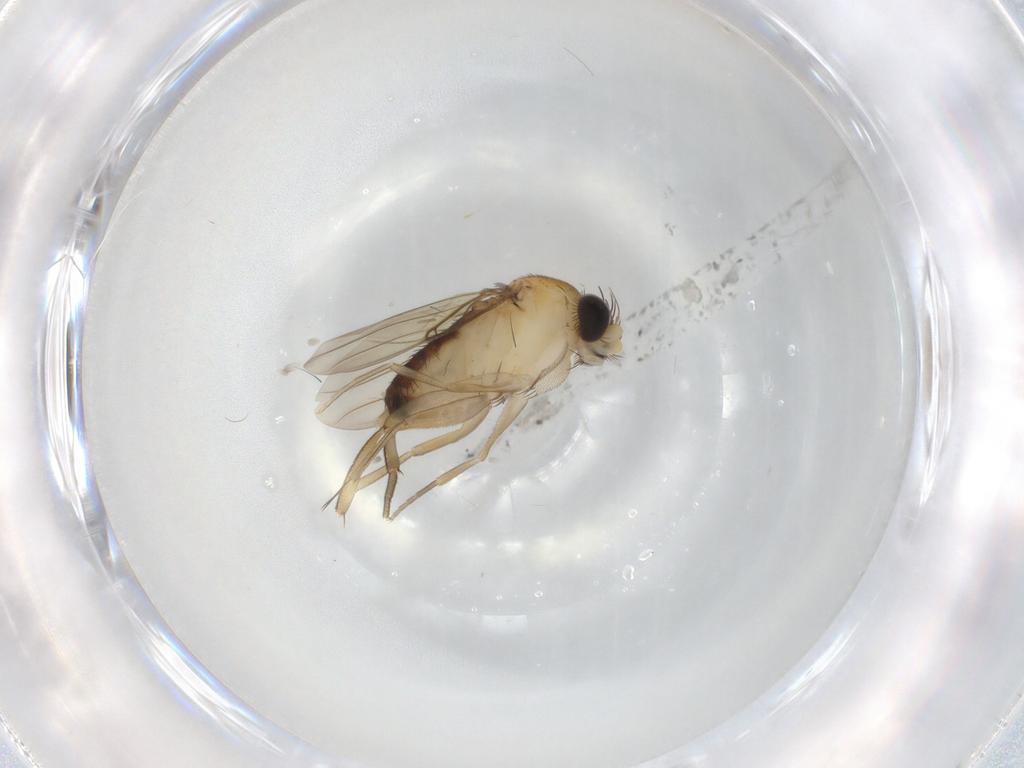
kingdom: Animalia
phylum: Arthropoda
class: Insecta
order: Diptera
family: Phoridae
